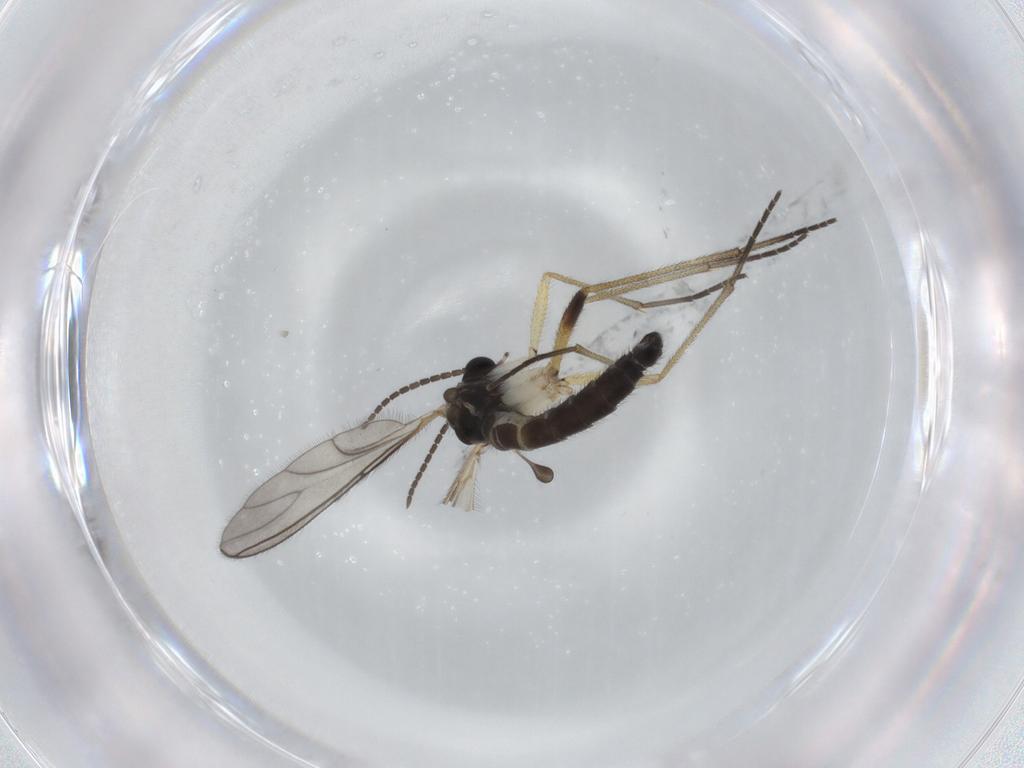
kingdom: Animalia
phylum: Arthropoda
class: Insecta
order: Diptera
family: Sciaridae
